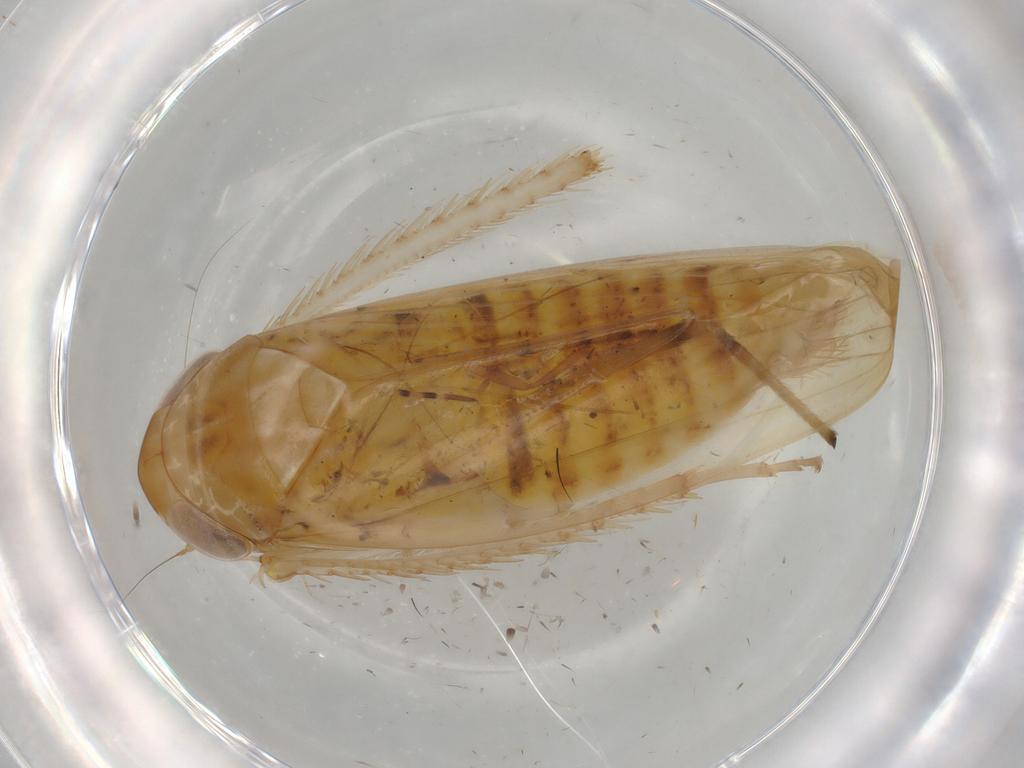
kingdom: Animalia
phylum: Arthropoda
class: Insecta
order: Hemiptera
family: Cicadellidae
